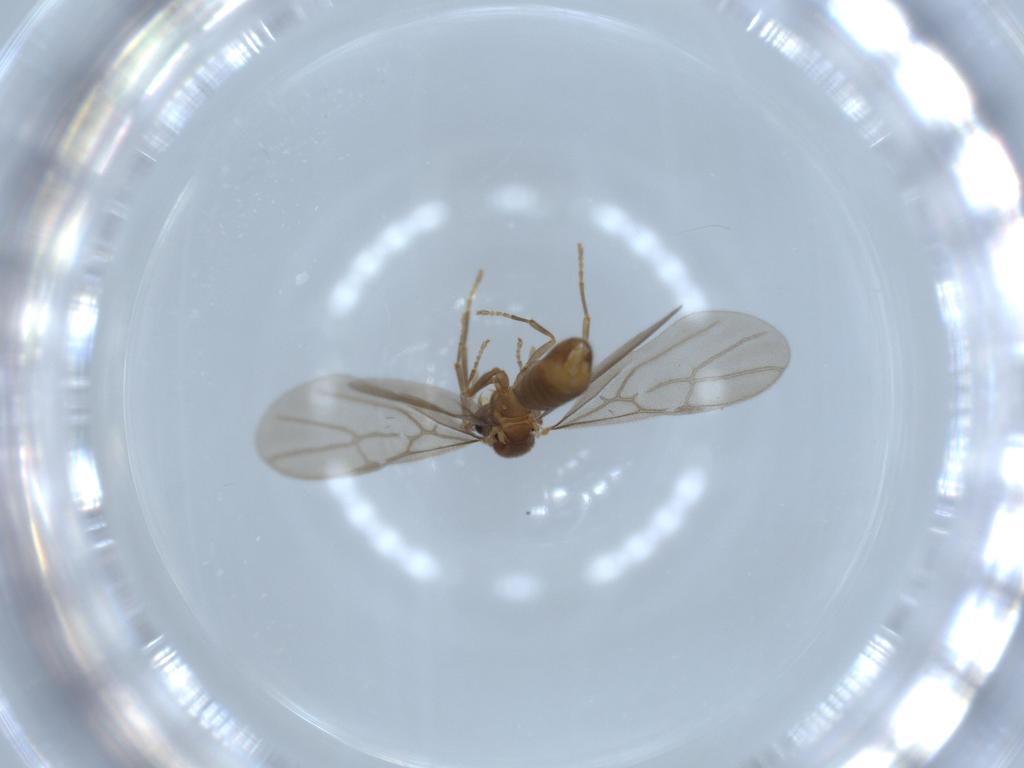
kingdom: Animalia
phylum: Arthropoda
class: Insecta
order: Hymenoptera
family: Formicidae
